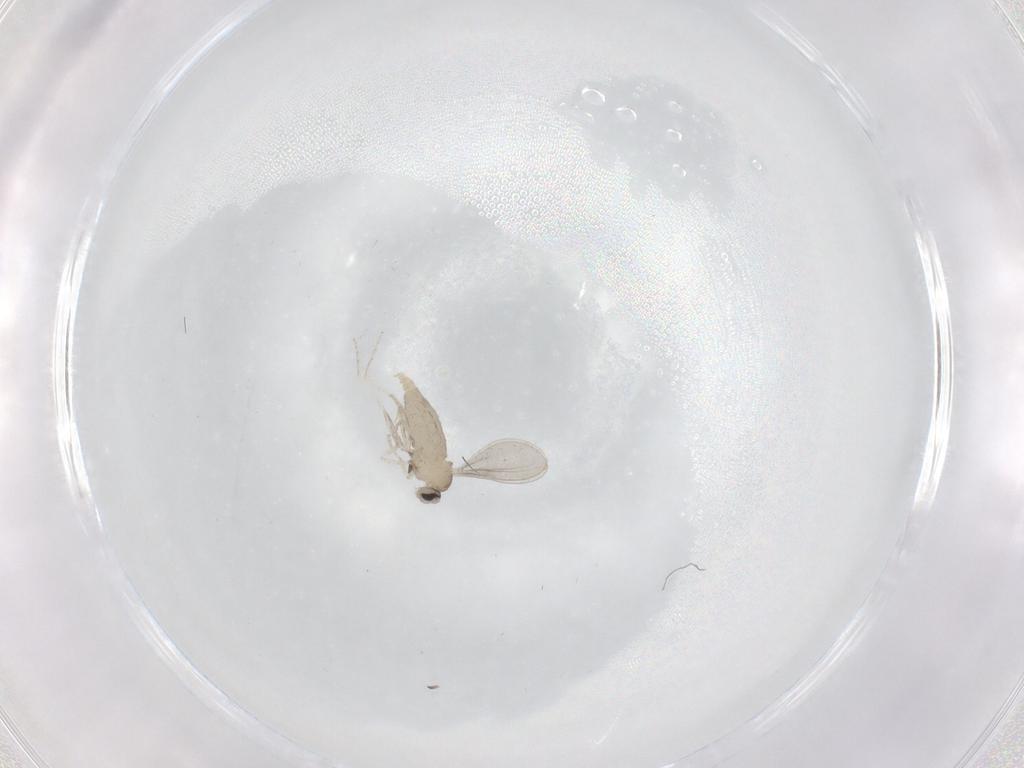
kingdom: Animalia
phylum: Arthropoda
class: Insecta
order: Diptera
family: Cecidomyiidae
